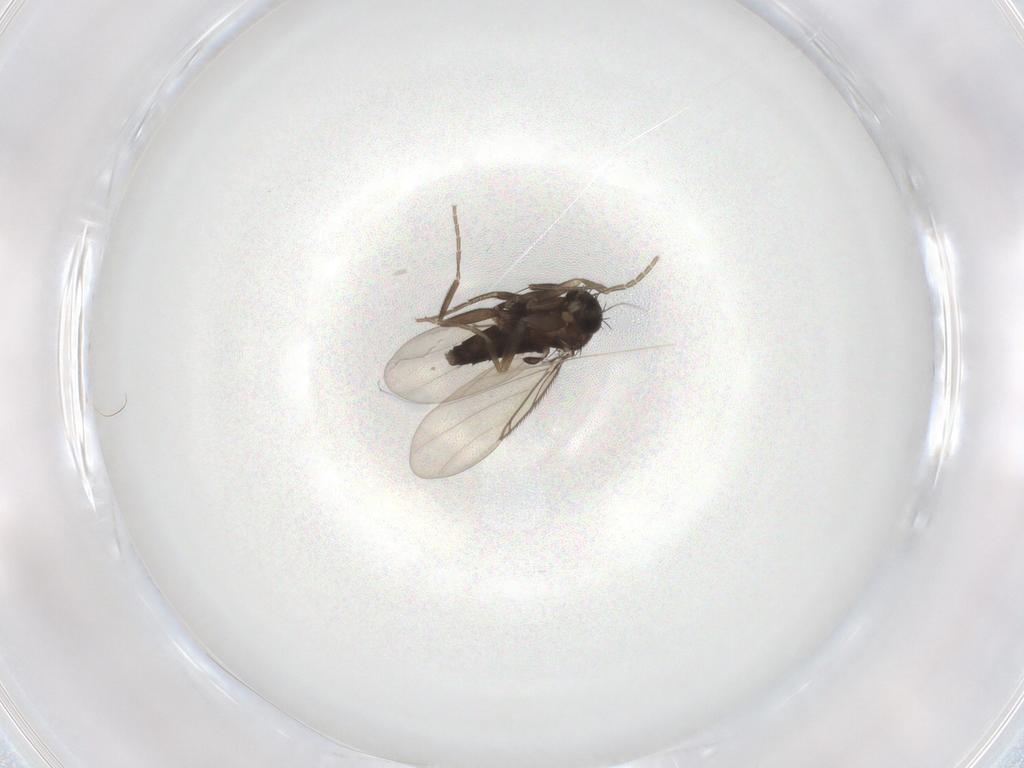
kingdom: Animalia
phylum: Arthropoda
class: Insecta
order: Diptera
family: Phoridae
